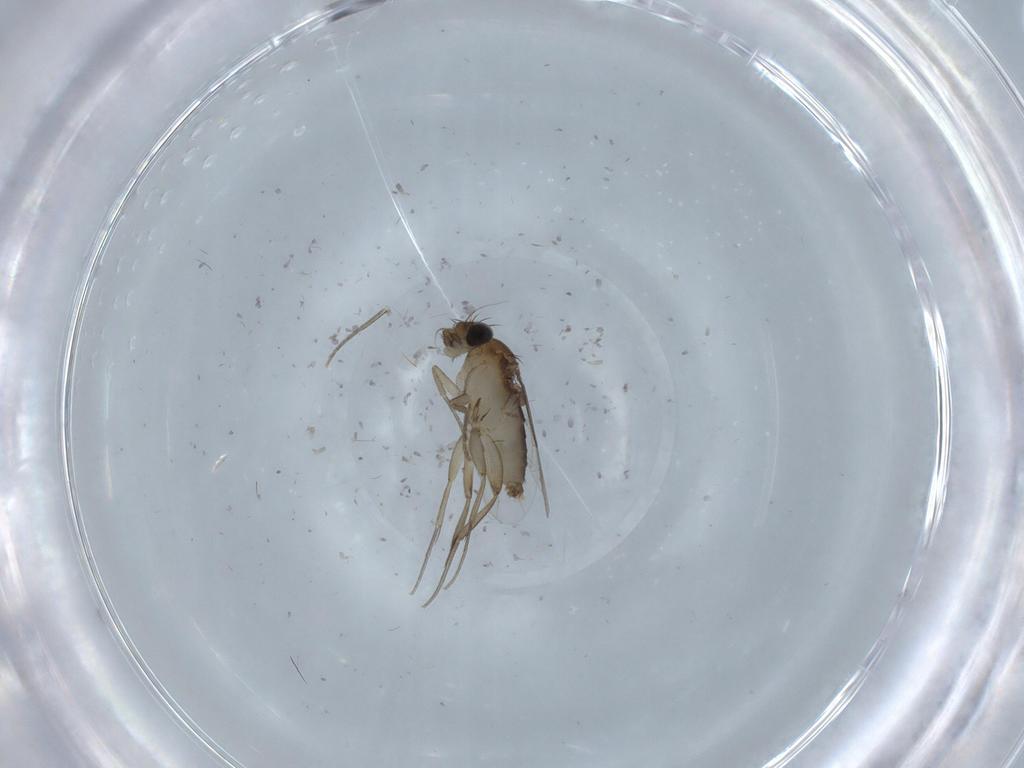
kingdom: Animalia
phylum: Arthropoda
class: Insecta
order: Diptera
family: Phoridae
